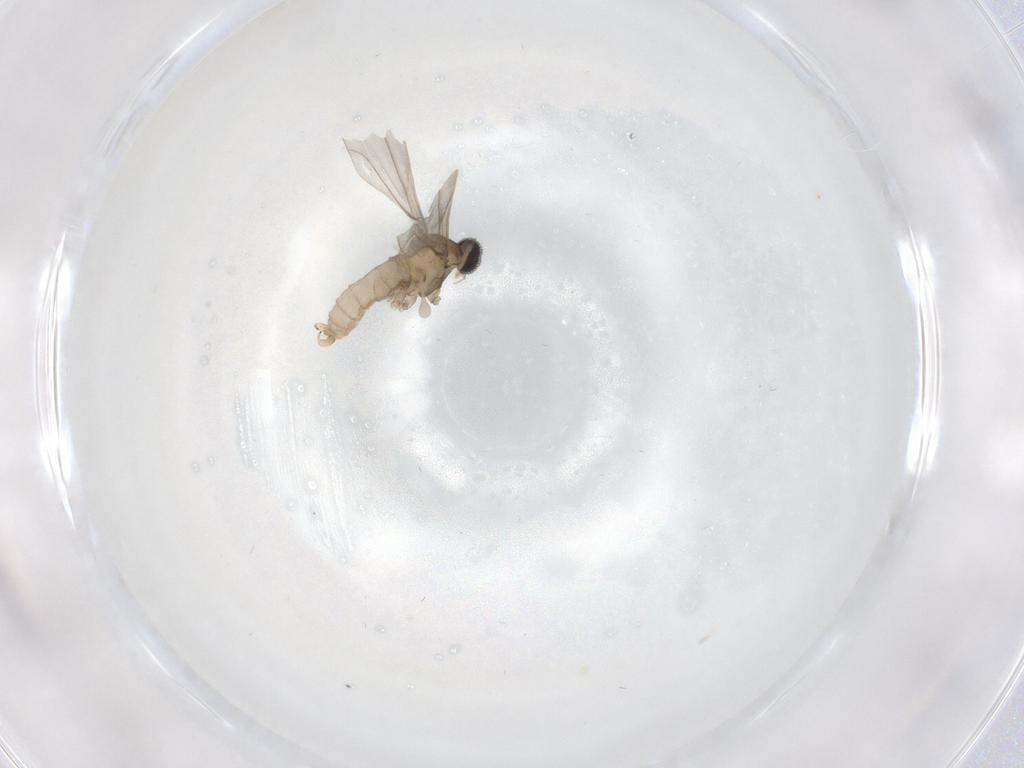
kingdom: Animalia
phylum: Arthropoda
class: Insecta
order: Diptera
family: Cecidomyiidae
